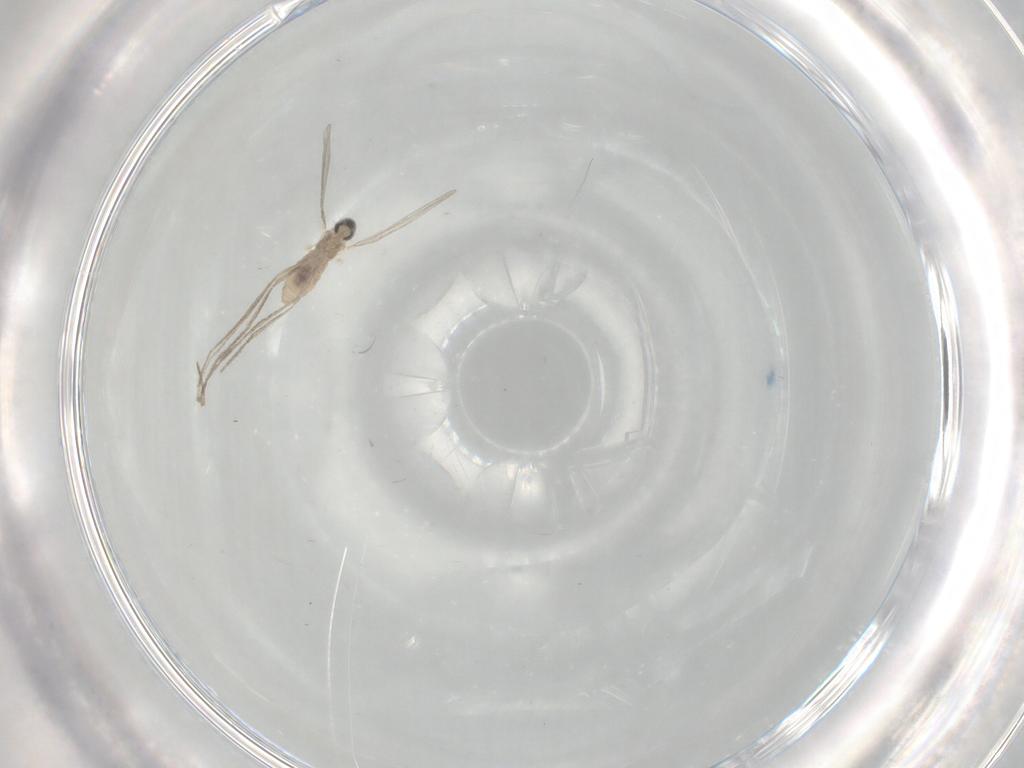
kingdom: Animalia
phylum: Arthropoda
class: Insecta
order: Diptera
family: Cecidomyiidae
